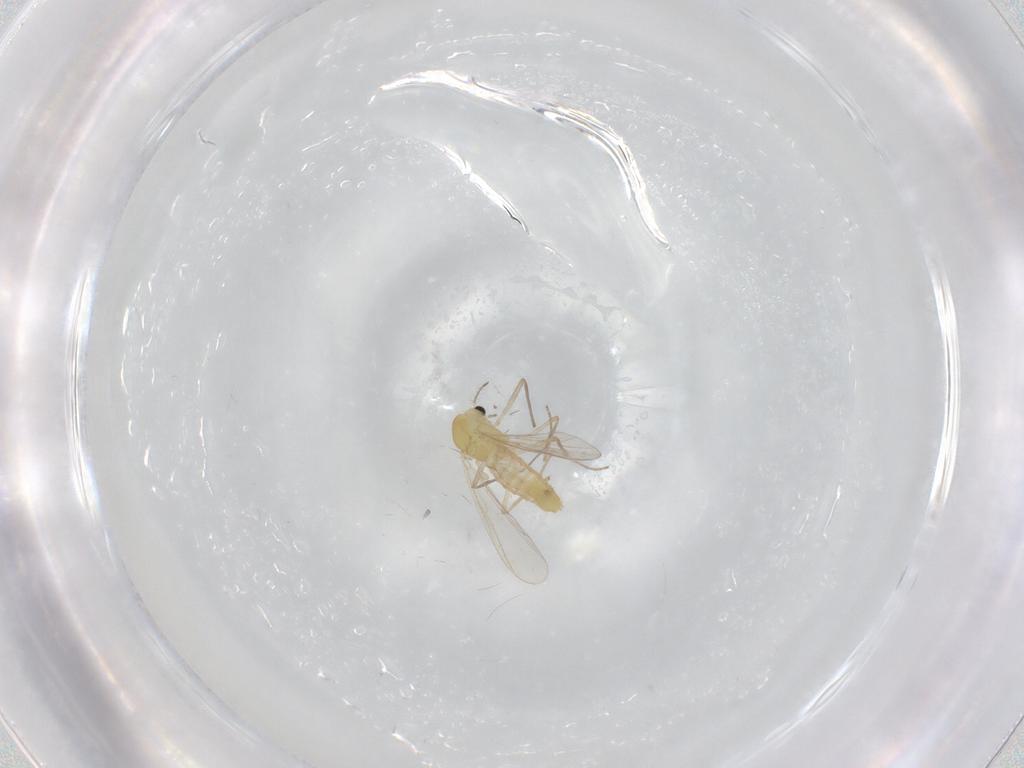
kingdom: Animalia
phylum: Arthropoda
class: Insecta
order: Diptera
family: Chironomidae
